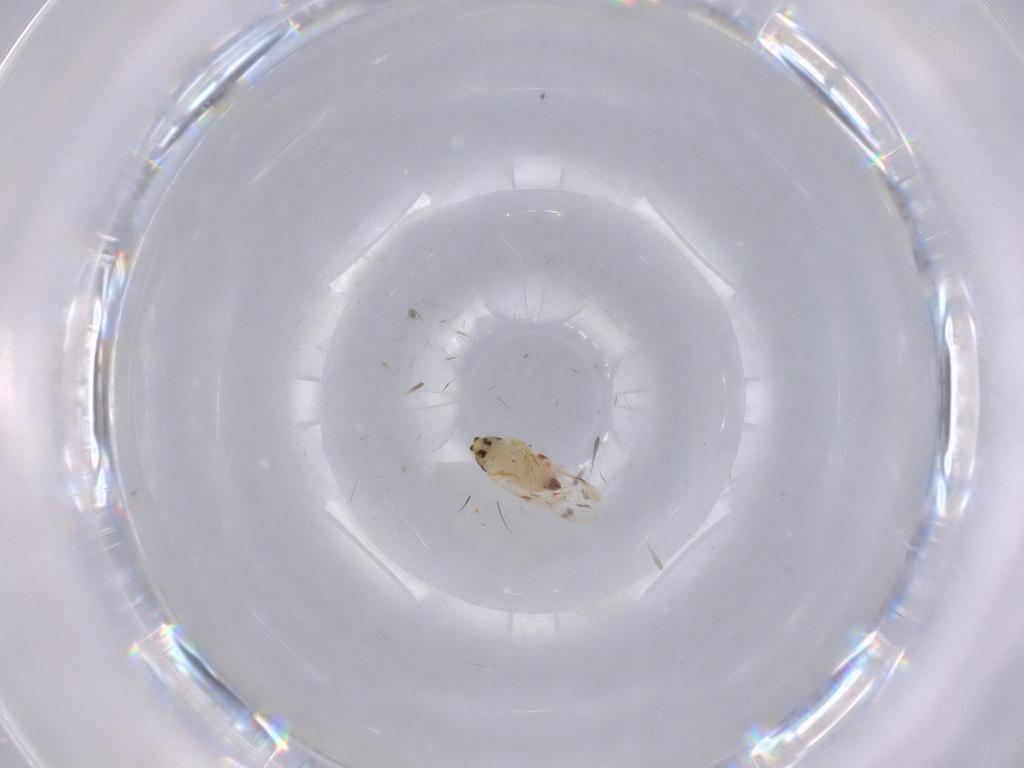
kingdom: Animalia
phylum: Arthropoda
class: Insecta
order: Hemiptera
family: Aleyrodidae
